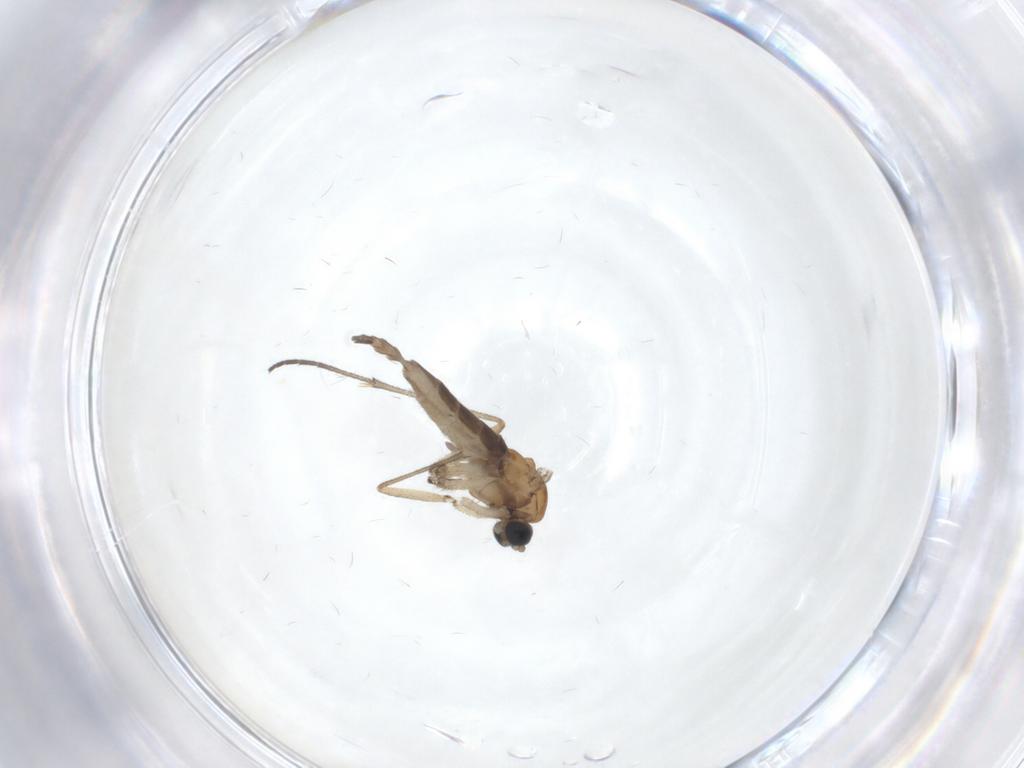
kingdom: Animalia
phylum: Arthropoda
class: Insecta
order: Diptera
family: Sciaridae
